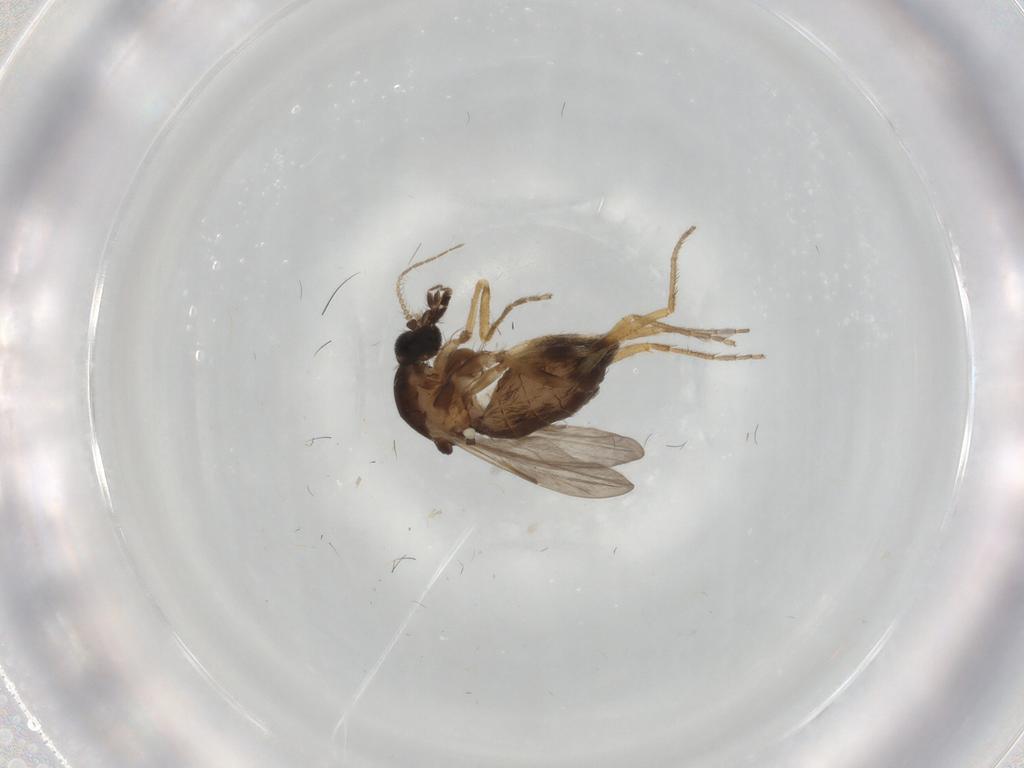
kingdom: Animalia
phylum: Arthropoda
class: Insecta
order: Diptera
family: Ceratopogonidae
